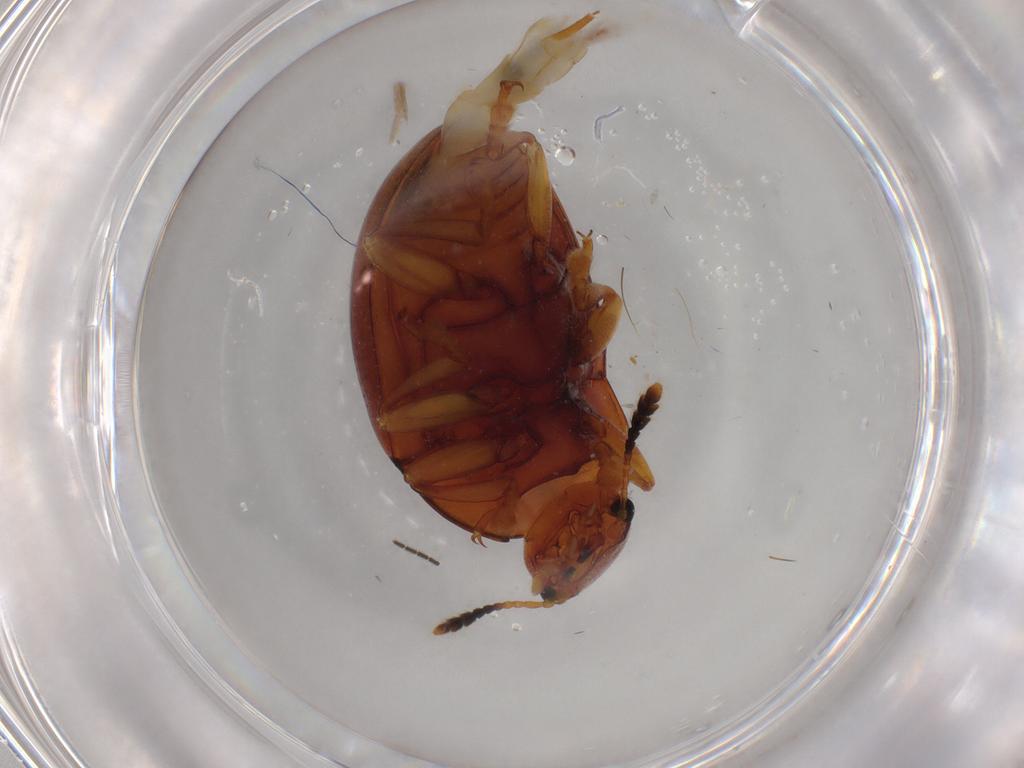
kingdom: Animalia
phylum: Arthropoda
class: Insecta
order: Coleoptera
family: Erotylidae
